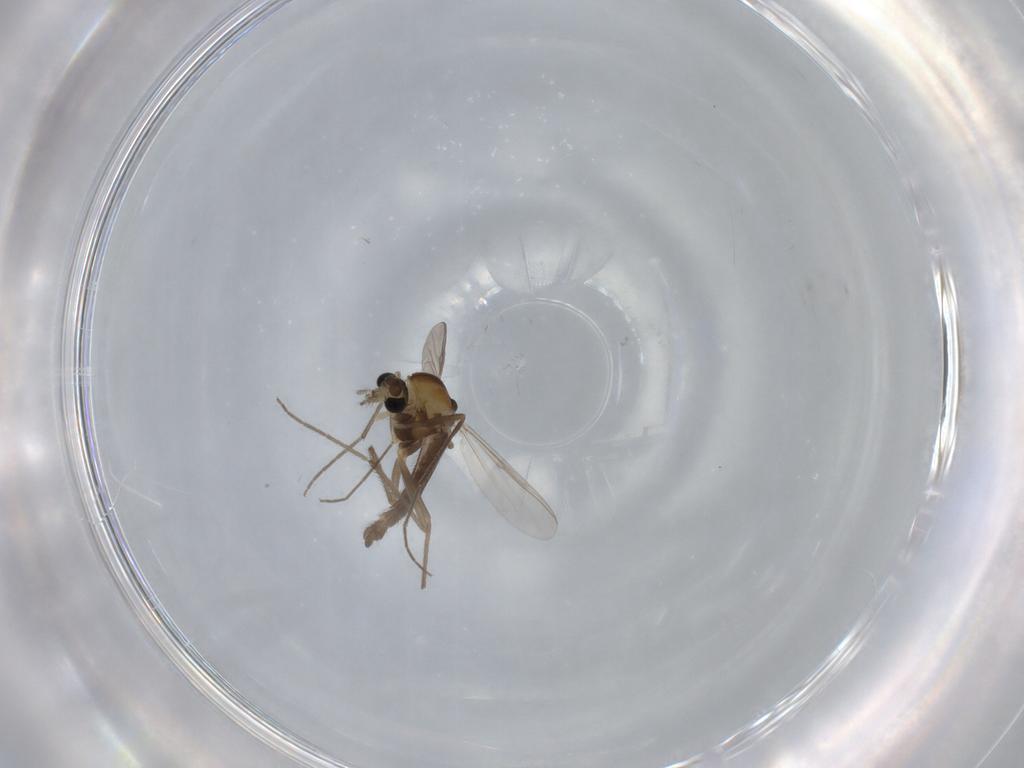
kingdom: Animalia
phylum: Arthropoda
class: Insecta
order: Diptera
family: Chironomidae
